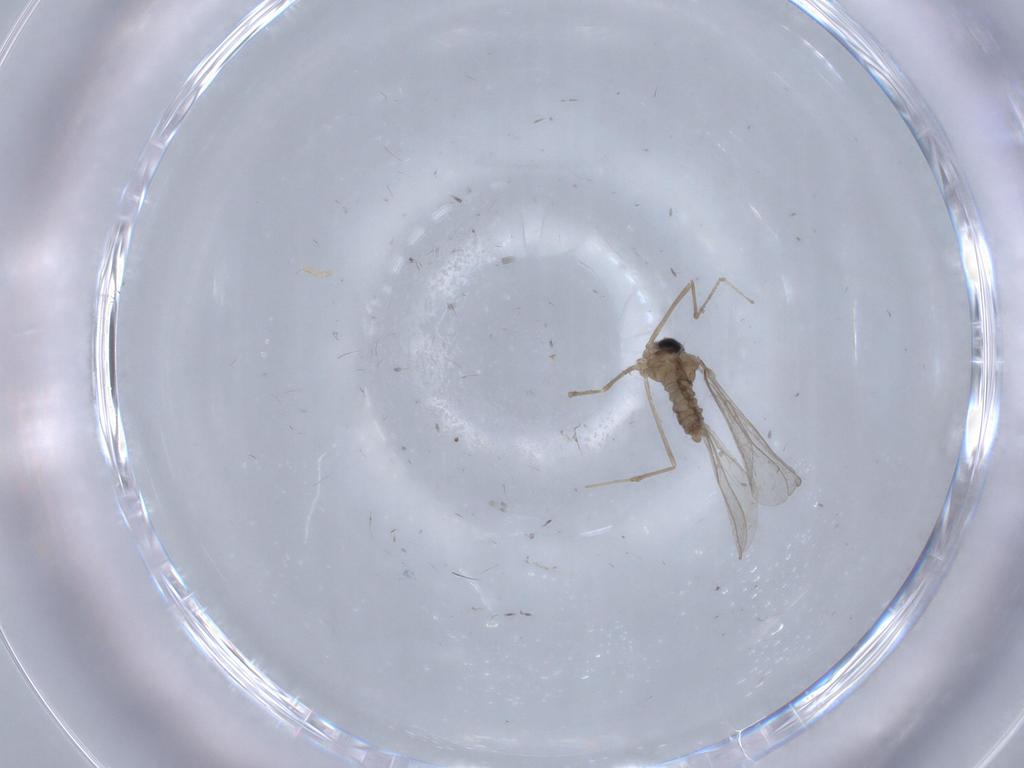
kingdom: Animalia
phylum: Arthropoda
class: Insecta
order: Diptera
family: Cecidomyiidae
